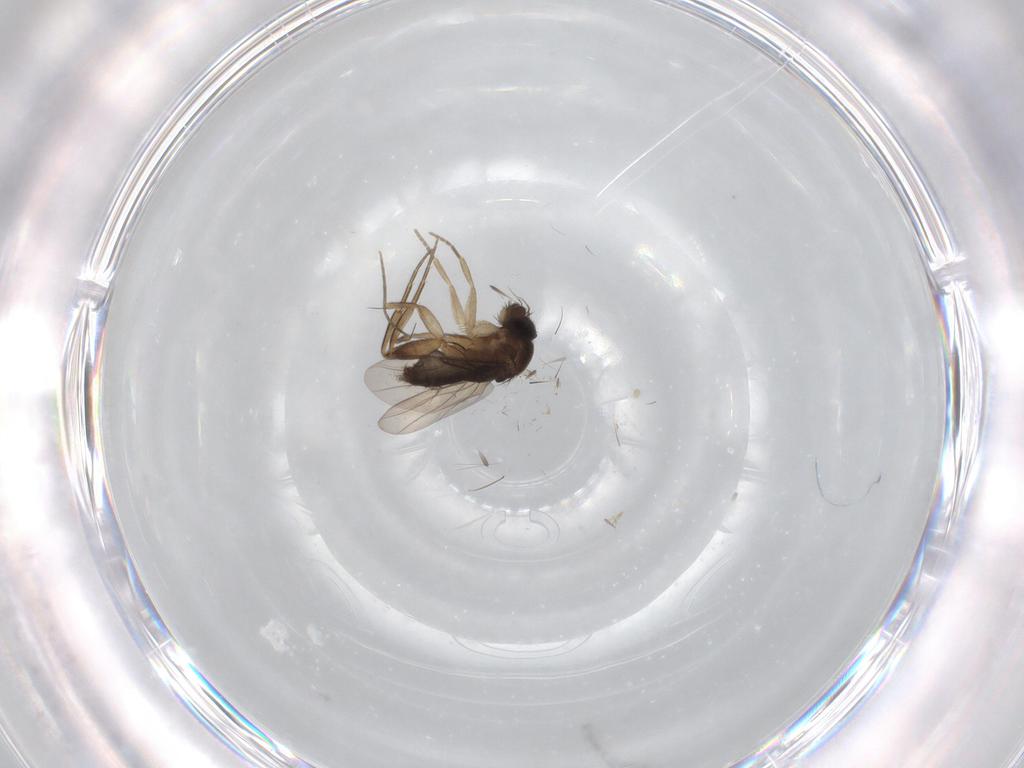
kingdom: Animalia
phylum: Arthropoda
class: Insecta
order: Diptera
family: Phoridae
